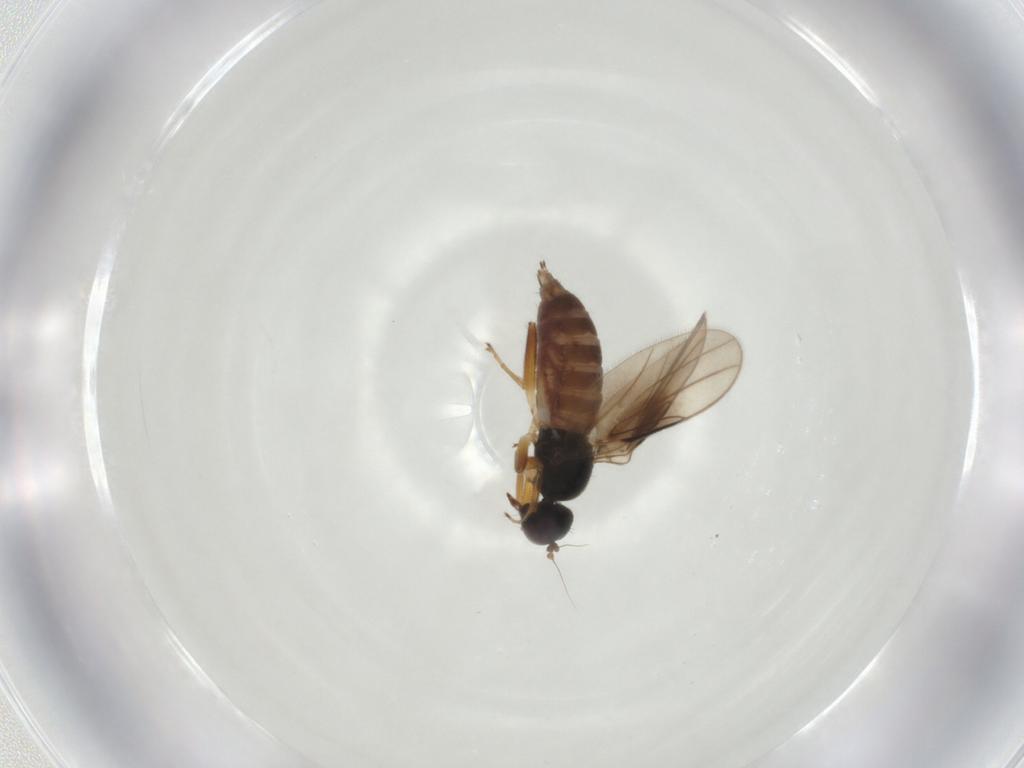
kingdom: Animalia
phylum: Arthropoda
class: Insecta
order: Diptera
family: Hybotidae
